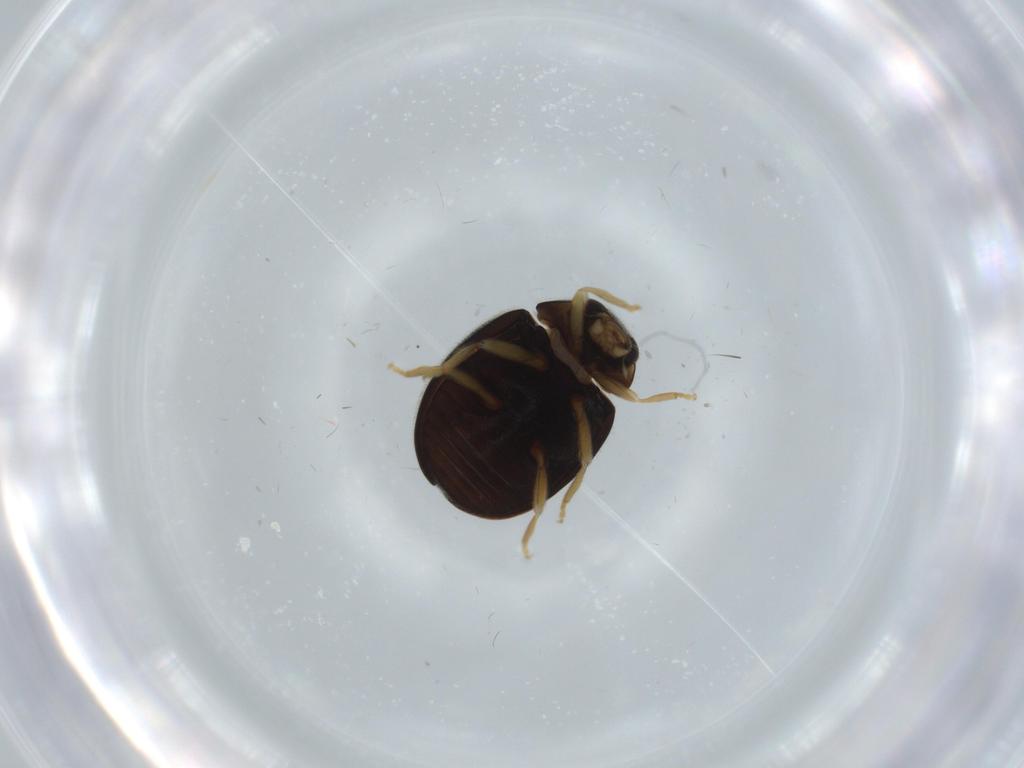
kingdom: Animalia
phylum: Arthropoda
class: Insecta
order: Coleoptera
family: Coccinellidae
